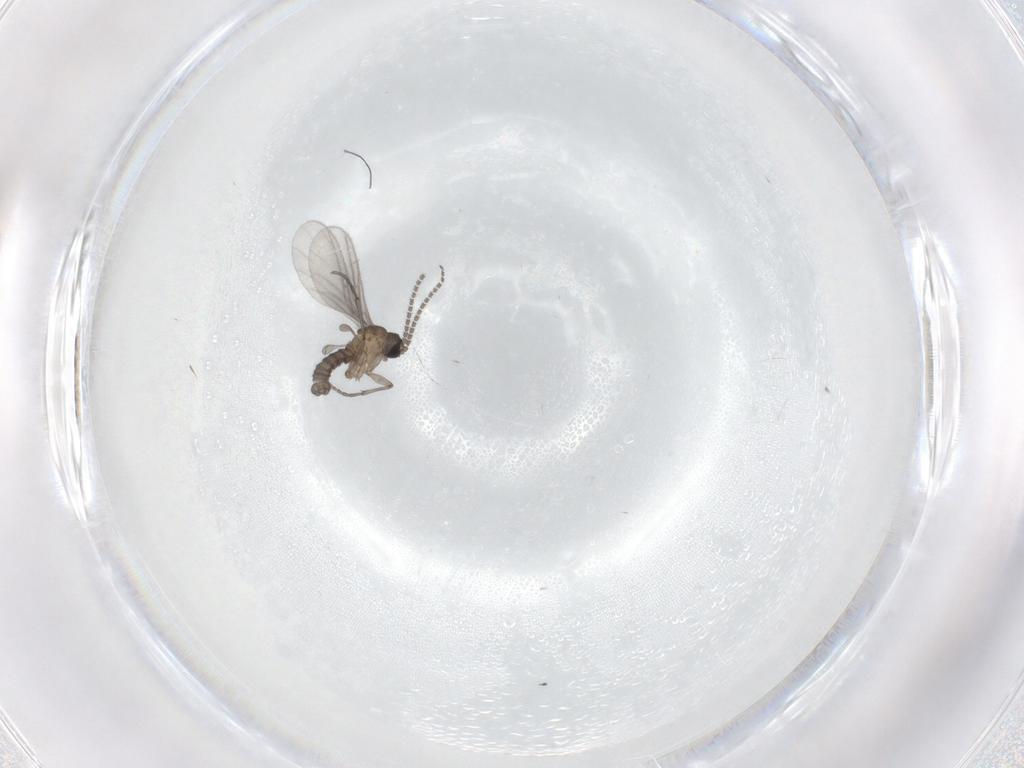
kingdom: Animalia
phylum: Arthropoda
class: Insecta
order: Diptera
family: Sciaridae
